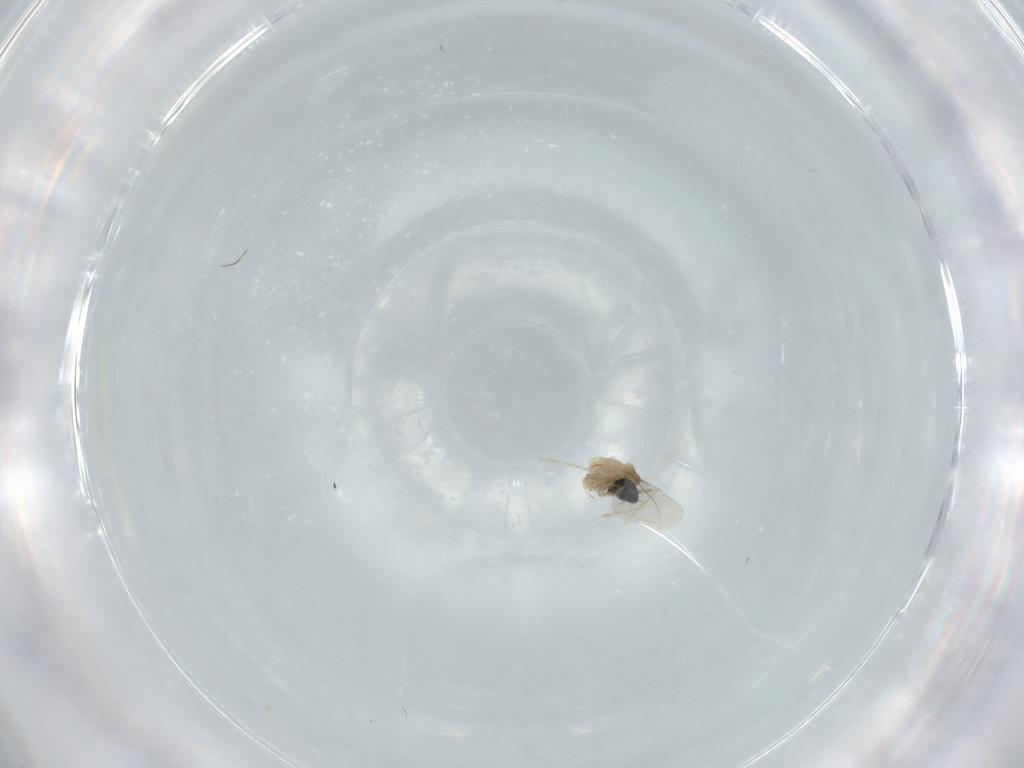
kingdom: Animalia
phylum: Arthropoda
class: Insecta
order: Diptera
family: Cecidomyiidae
